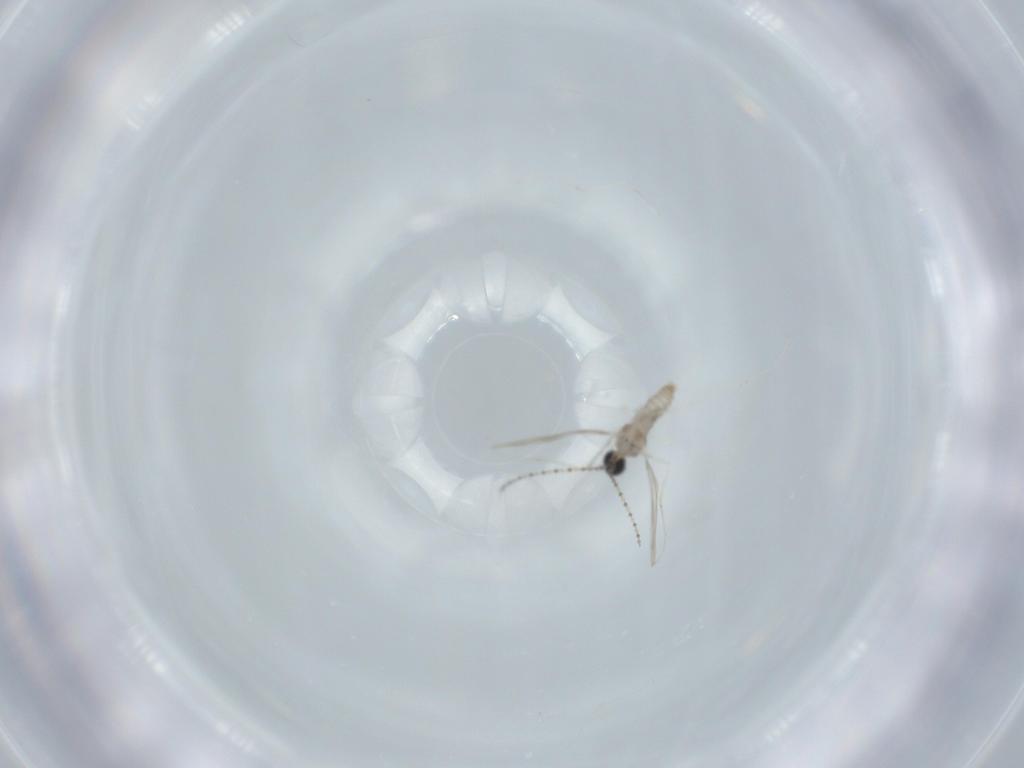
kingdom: Animalia
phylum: Arthropoda
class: Insecta
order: Diptera
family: Cecidomyiidae
